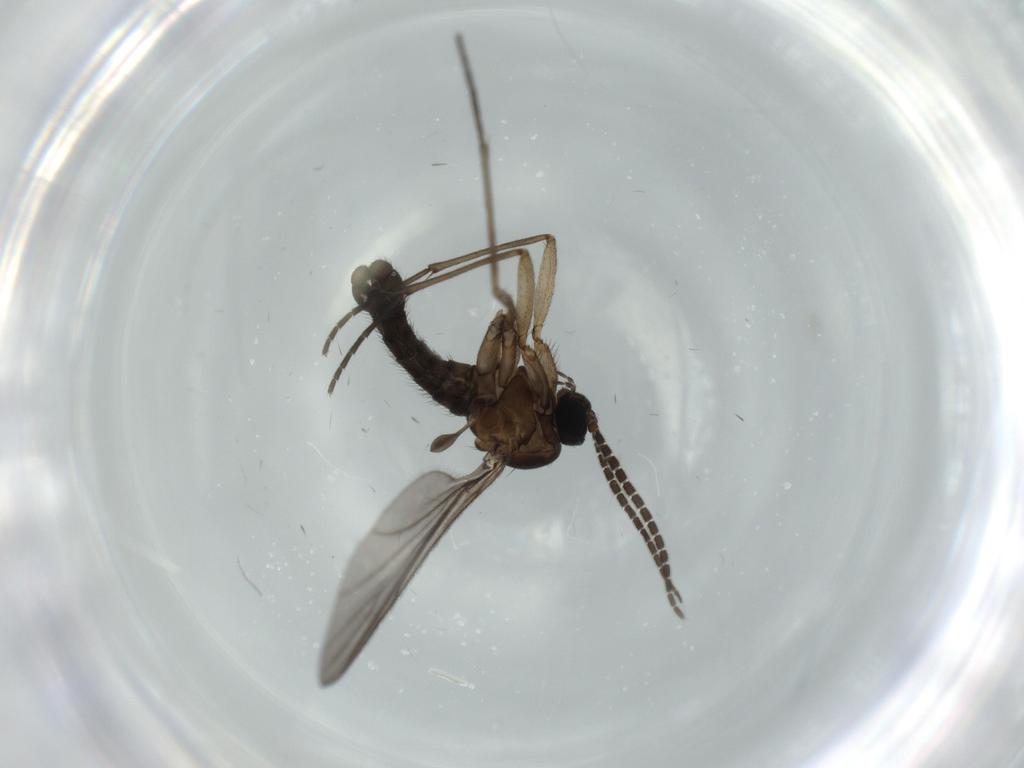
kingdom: Animalia
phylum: Arthropoda
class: Insecta
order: Diptera
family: Sciaridae
